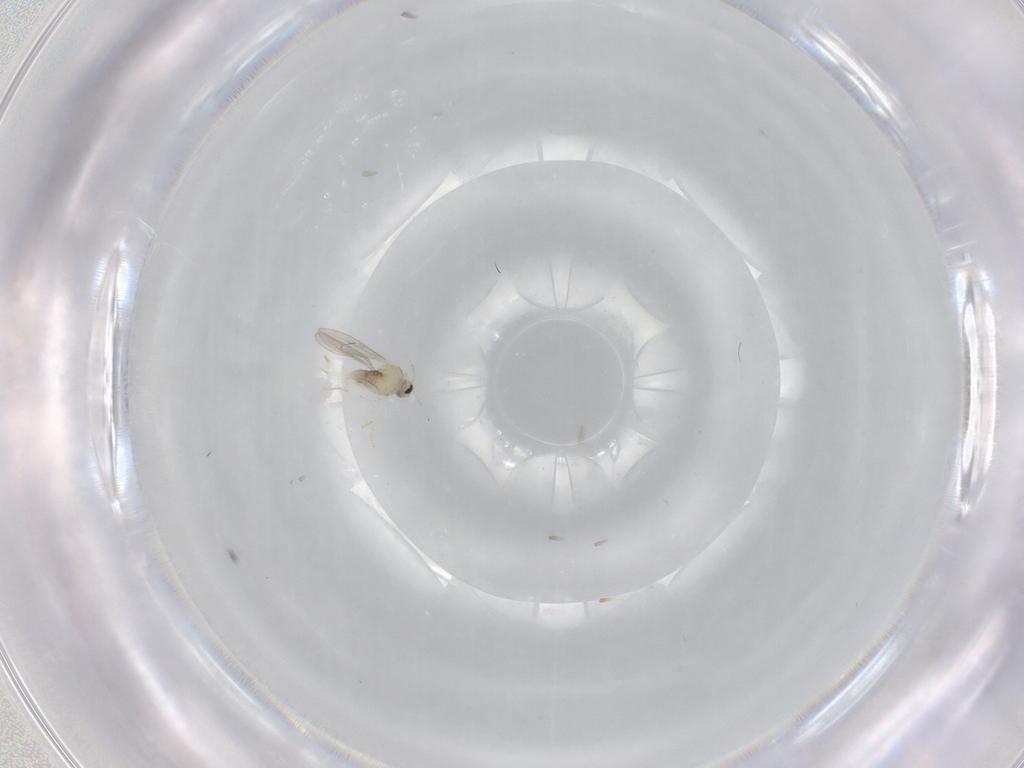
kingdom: Animalia
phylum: Arthropoda
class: Insecta
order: Diptera
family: Cecidomyiidae
